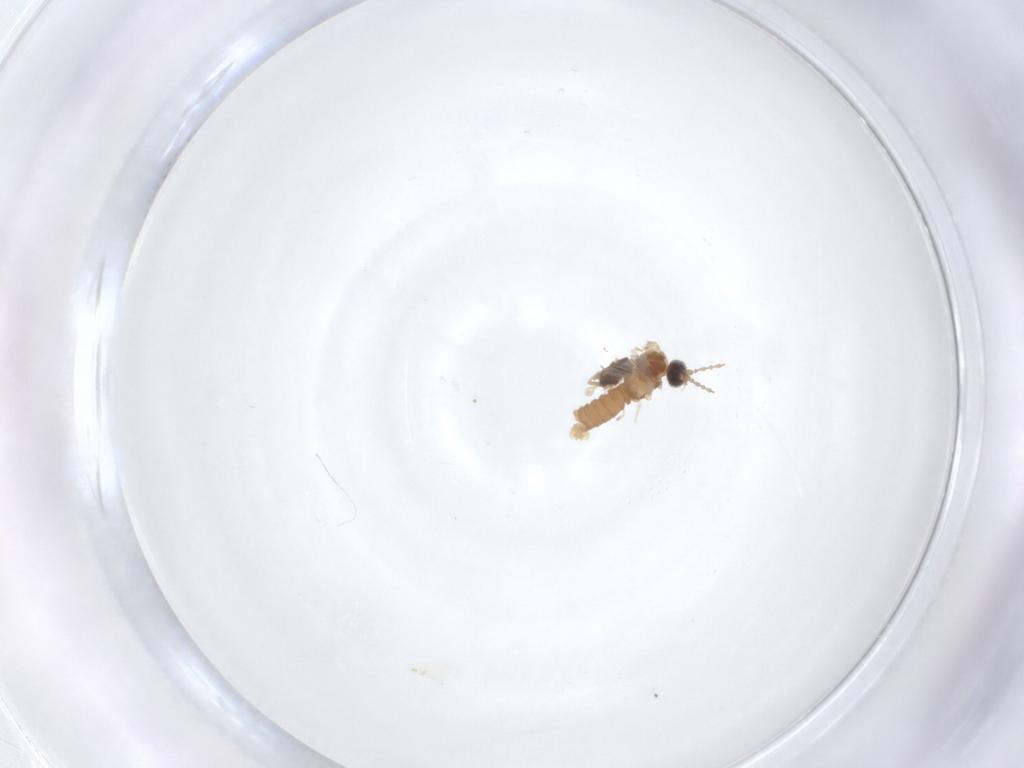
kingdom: Animalia
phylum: Arthropoda
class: Insecta
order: Diptera
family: Cecidomyiidae
